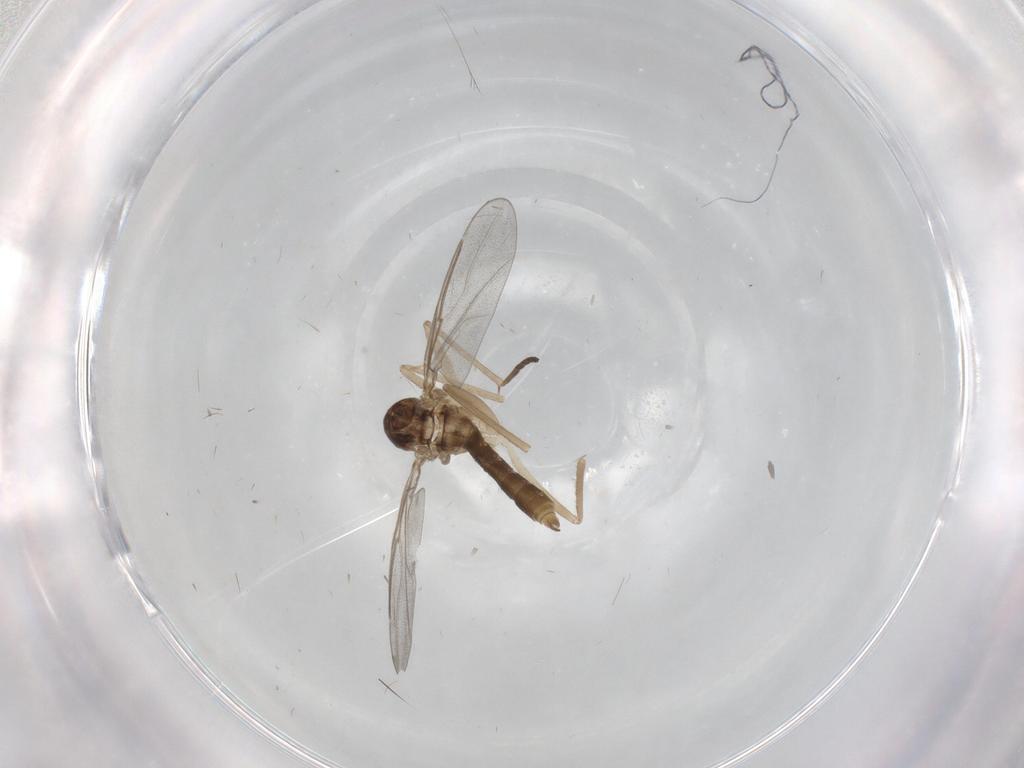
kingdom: Animalia
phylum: Arthropoda
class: Insecta
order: Diptera
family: Cecidomyiidae
